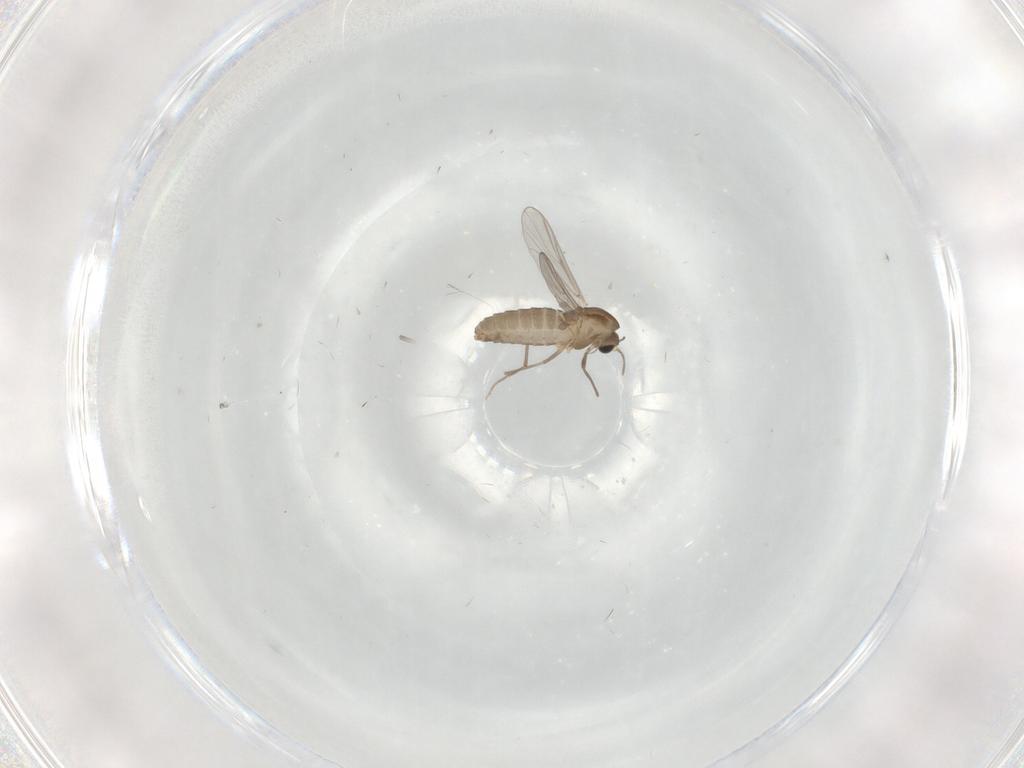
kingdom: Animalia
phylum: Arthropoda
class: Insecta
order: Diptera
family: Chironomidae
